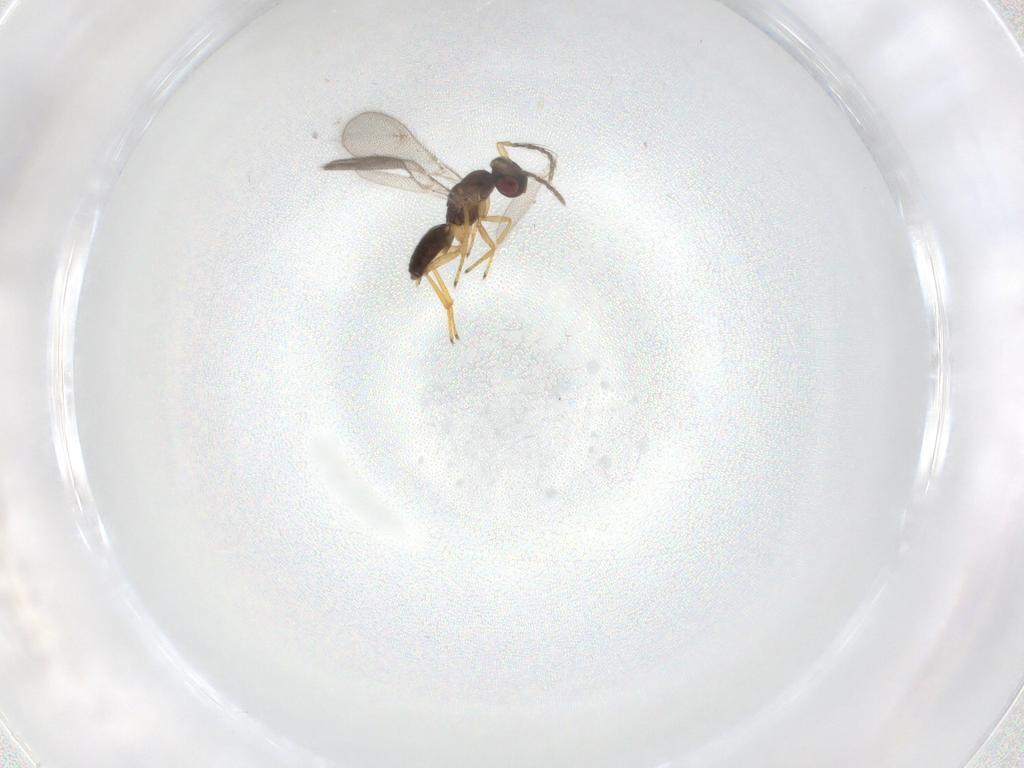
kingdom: Animalia
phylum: Arthropoda
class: Insecta
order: Hymenoptera
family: Eulophidae
